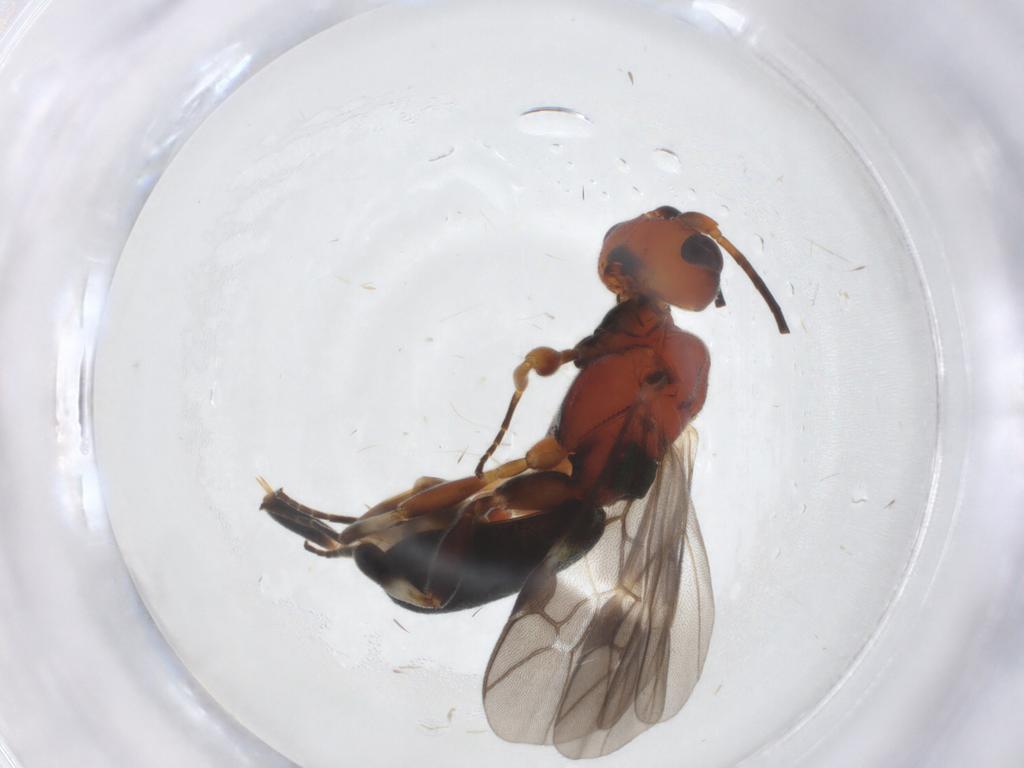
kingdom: Animalia
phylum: Arthropoda
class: Insecta
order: Hymenoptera
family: Braconidae
